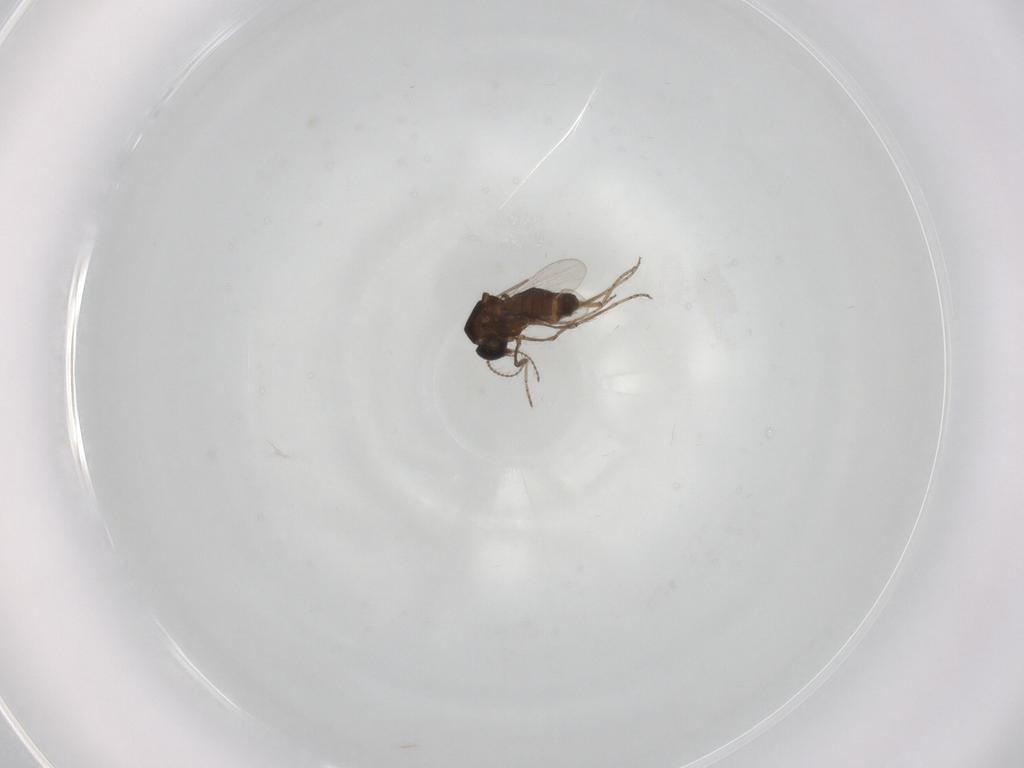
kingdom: Animalia
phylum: Arthropoda
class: Insecta
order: Diptera
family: Ceratopogonidae
